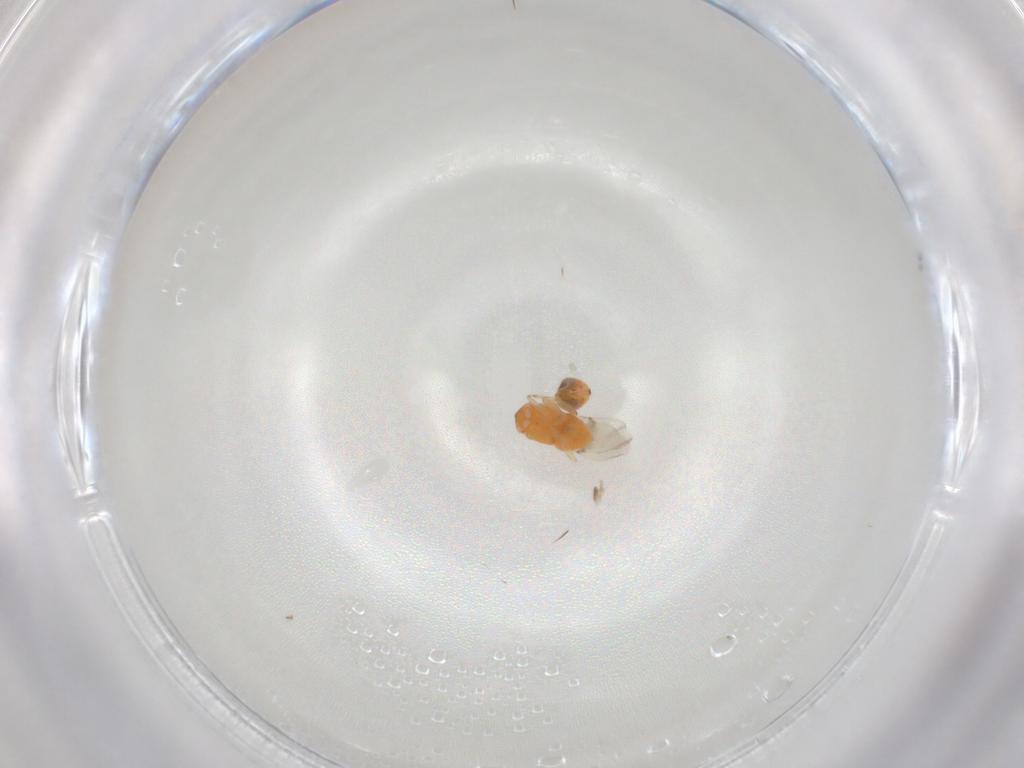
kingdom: Animalia
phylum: Arthropoda
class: Insecta
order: Hymenoptera
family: Encyrtidae
